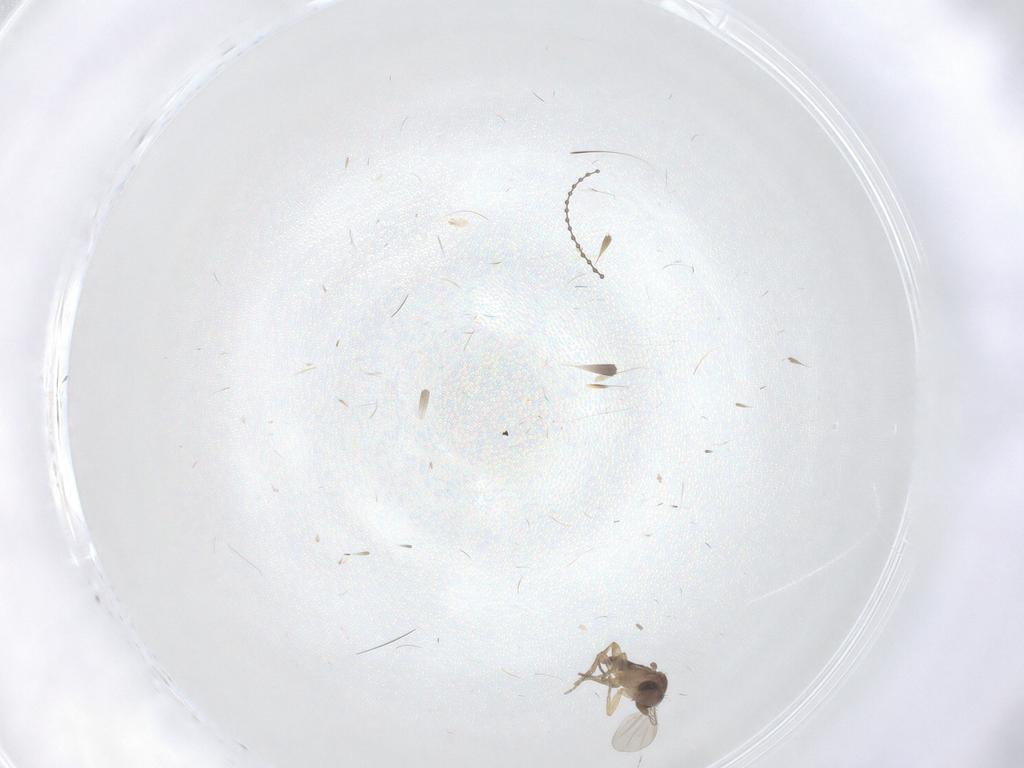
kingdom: Animalia
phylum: Arthropoda
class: Insecta
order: Diptera
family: Phoridae
